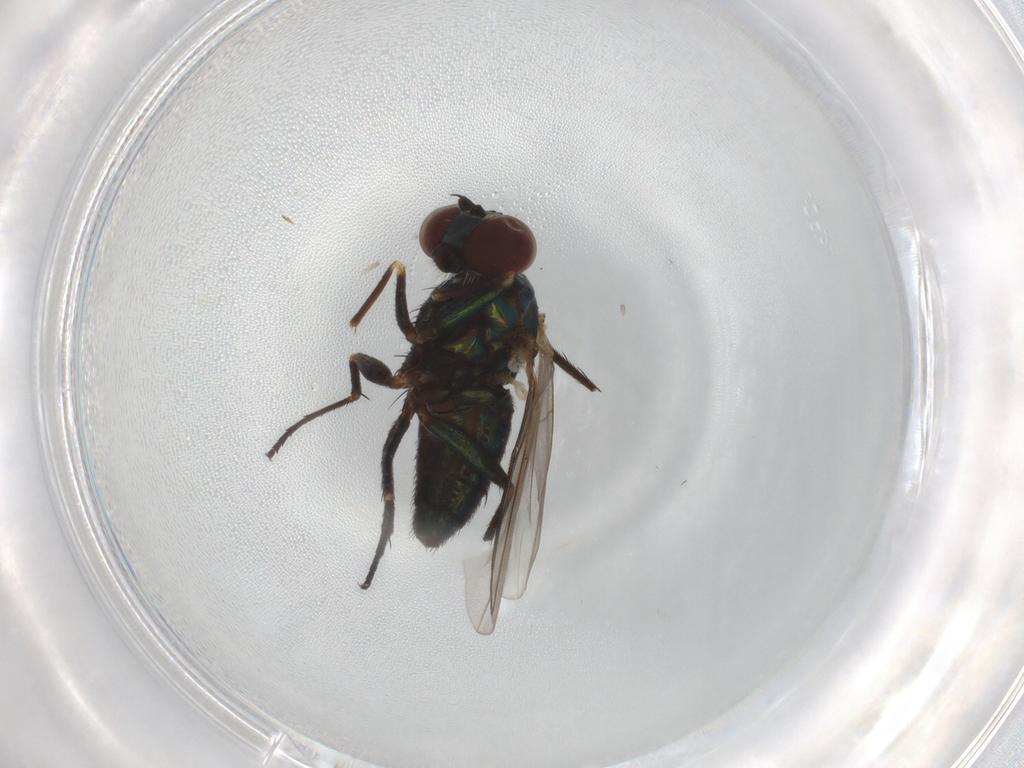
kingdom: Animalia
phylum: Arthropoda
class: Insecta
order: Diptera
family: Dolichopodidae
